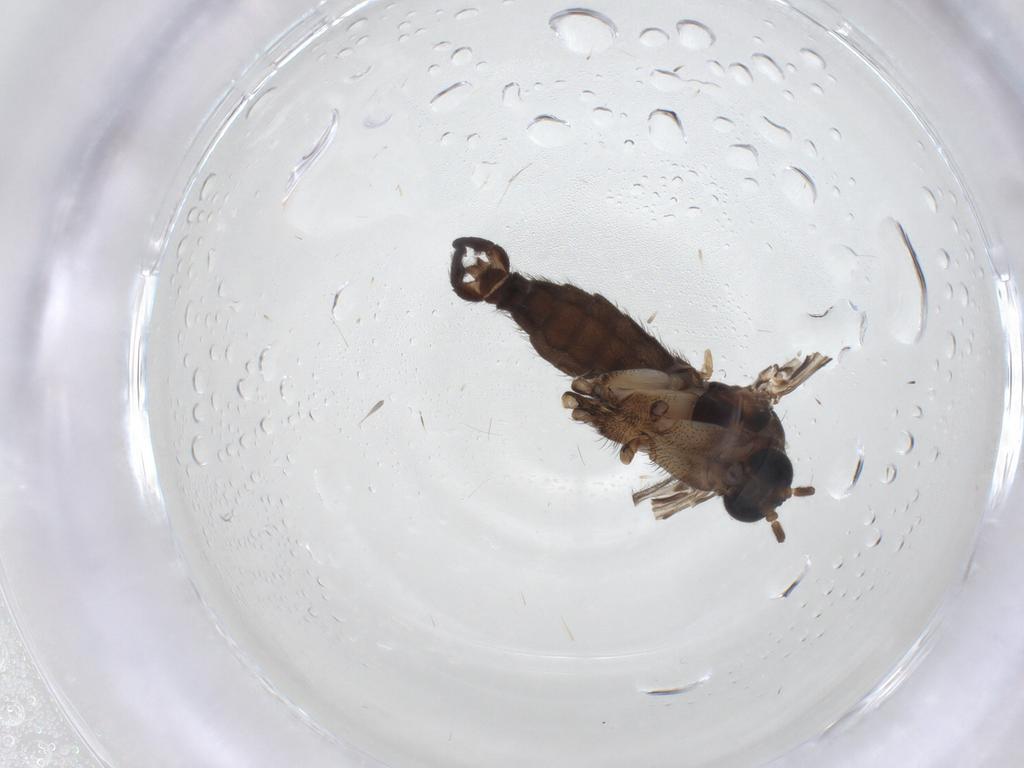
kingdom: Animalia
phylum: Arthropoda
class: Insecta
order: Diptera
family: Sciaridae
